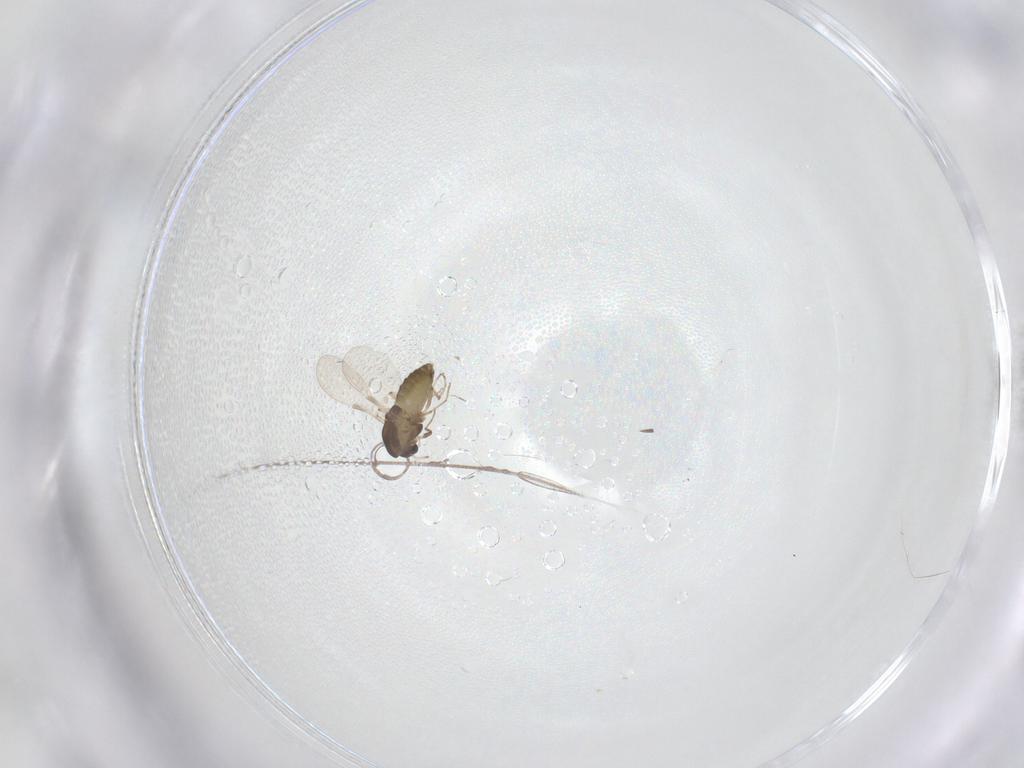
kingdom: Animalia
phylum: Arthropoda
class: Insecta
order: Diptera
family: Chironomidae
